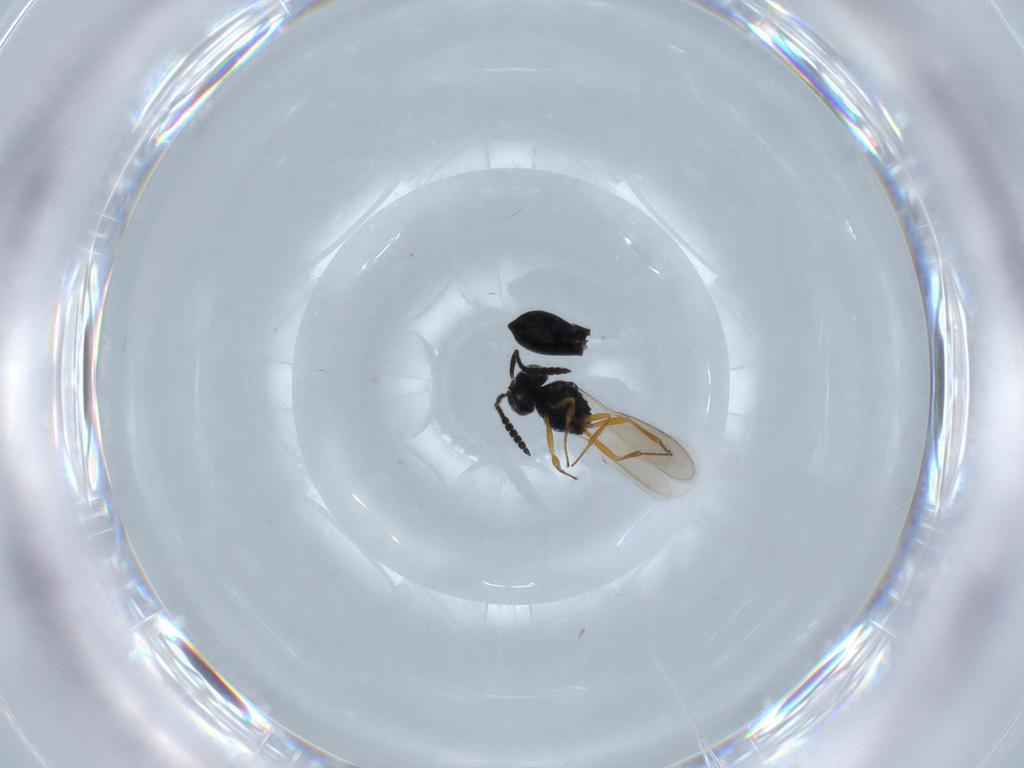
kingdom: Animalia
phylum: Arthropoda
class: Insecta
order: Hymenoptera
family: Scelionidae
